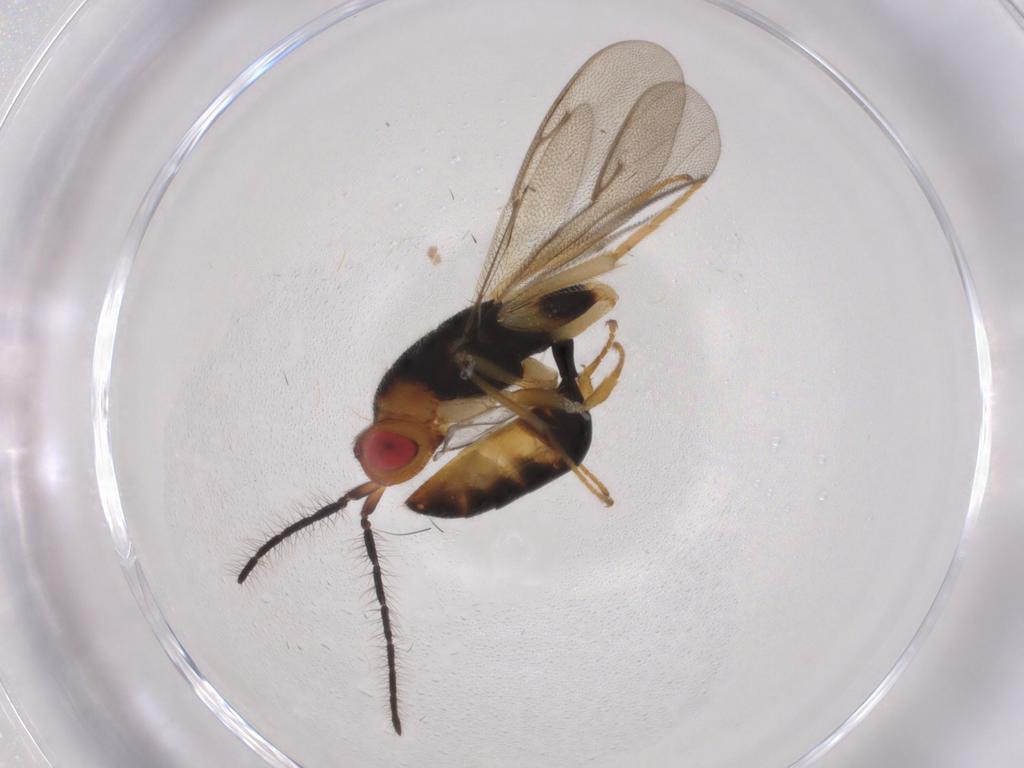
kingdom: Animalia
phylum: Arthropoda
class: Insecta
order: Diptera
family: Sciaridae
